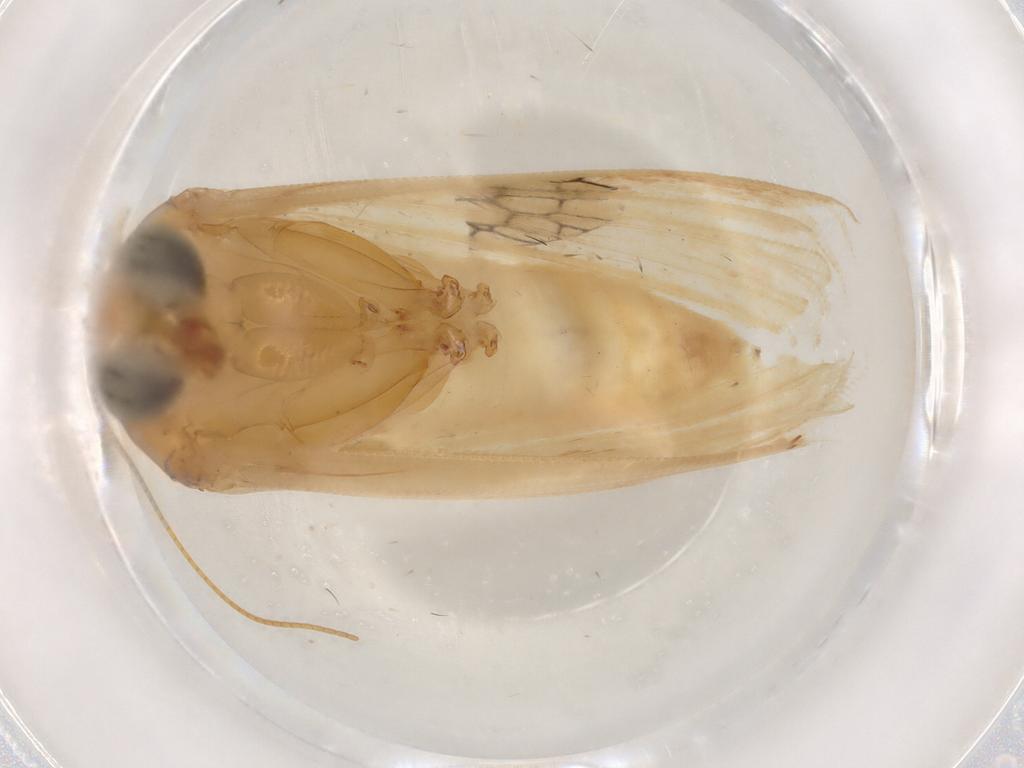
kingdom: Animalia
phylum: Arthropoda
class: Insecta
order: Lepidoptera
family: Noctuidae
